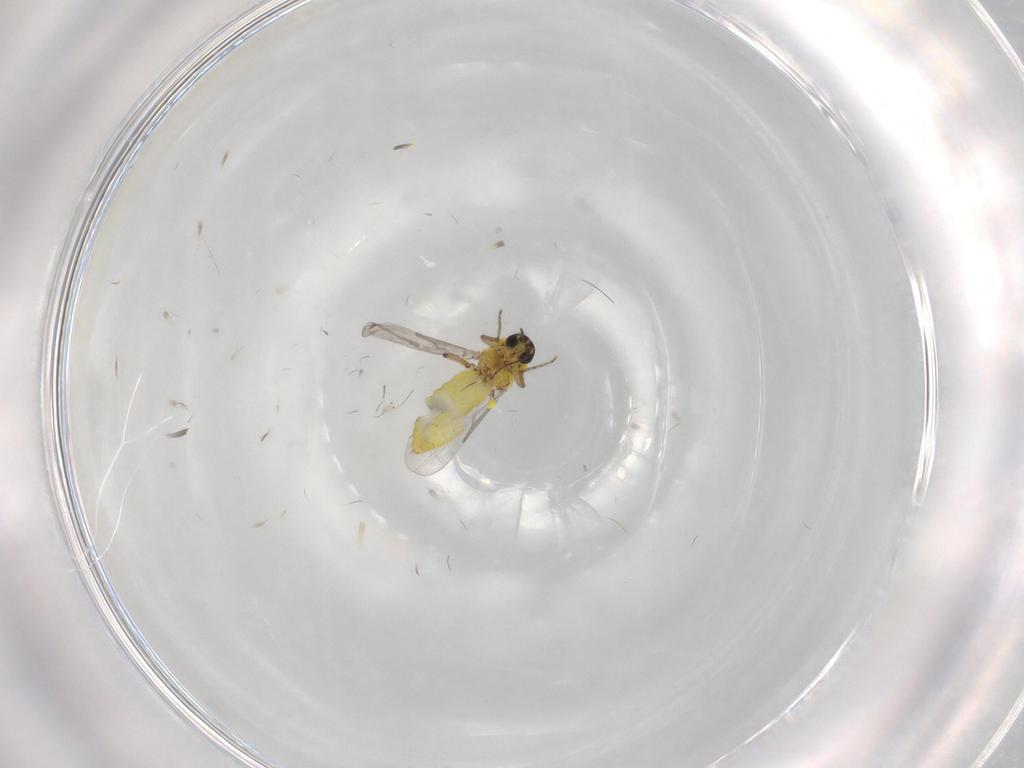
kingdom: Animalia
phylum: Arthropoda
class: Insecta
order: Diptera
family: Ceratopogonidae
